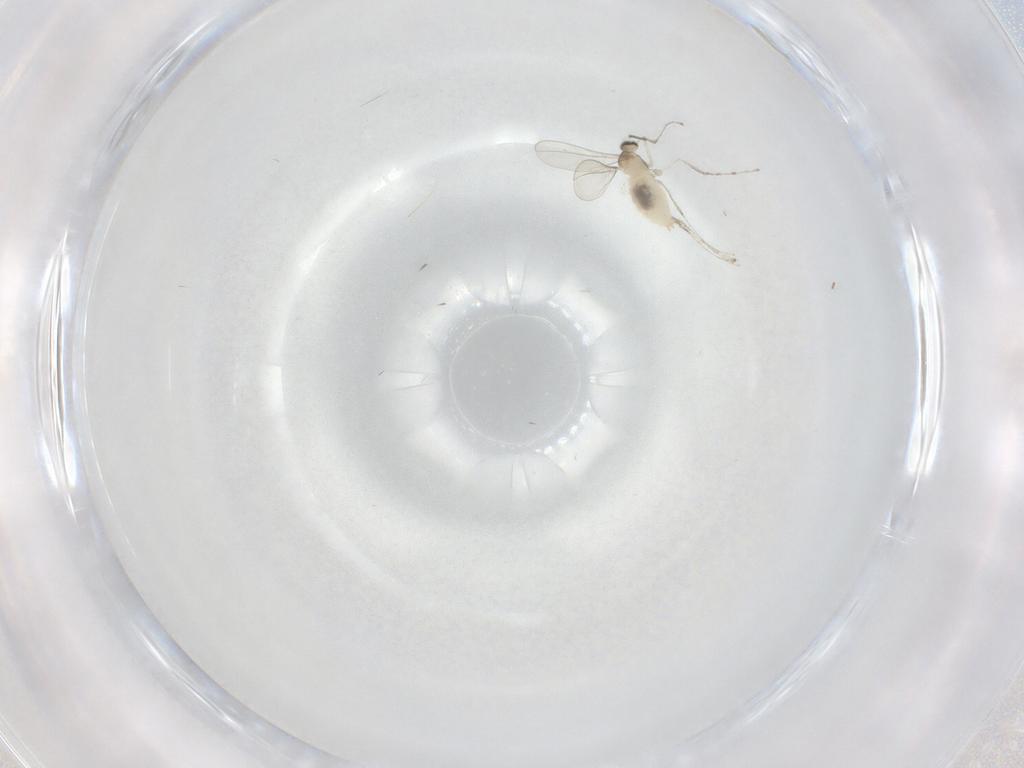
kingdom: Animalia
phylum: Arthropoda
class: Insecta
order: Diptera
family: Cecidomyiidae
